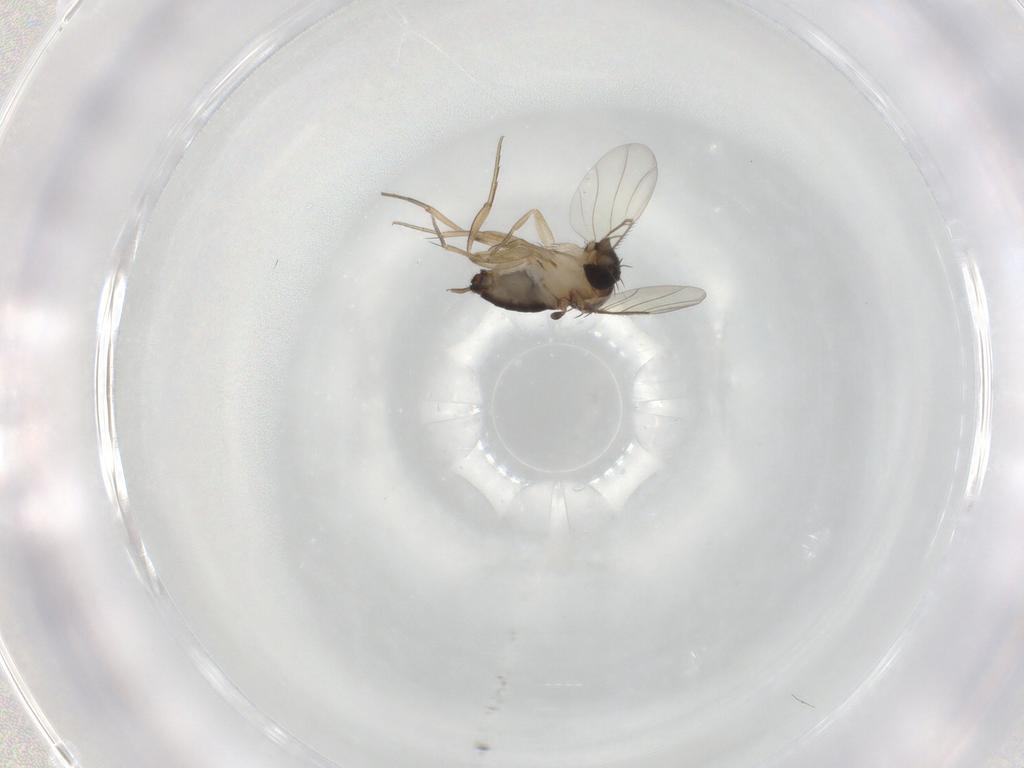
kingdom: Animalia
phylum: Arthropoda
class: Insecta
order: Diptera
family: Phoridae
